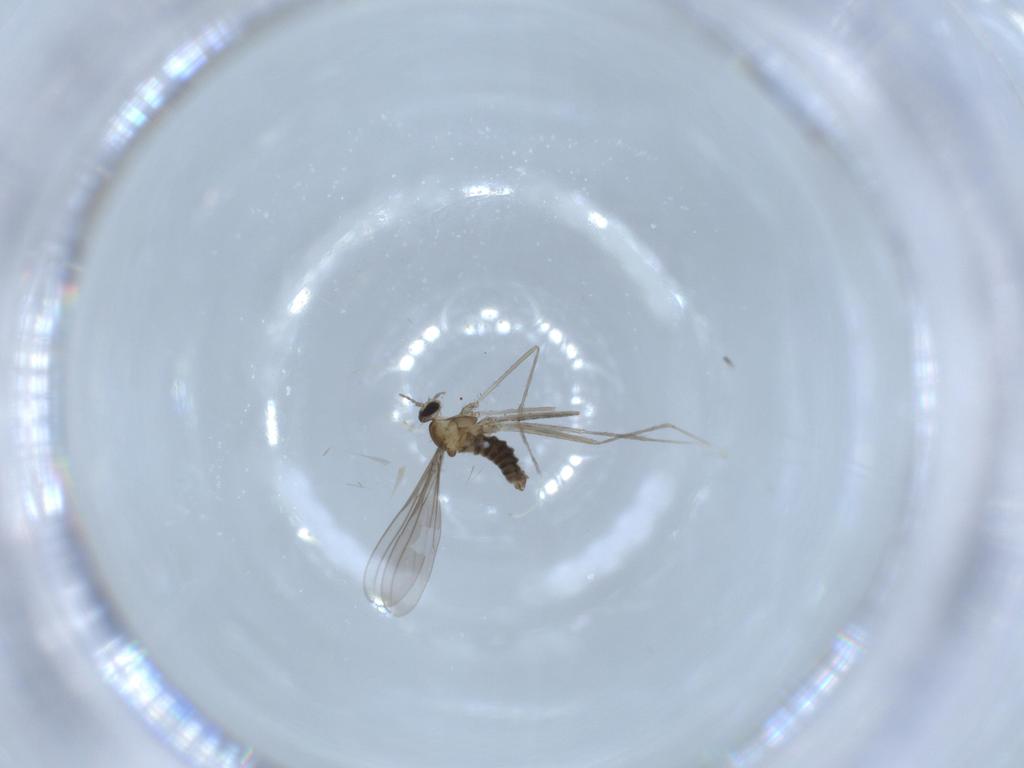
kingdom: Animalia
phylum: Arthropoda
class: Insecta
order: Diptera
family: Cecidomyiidae
